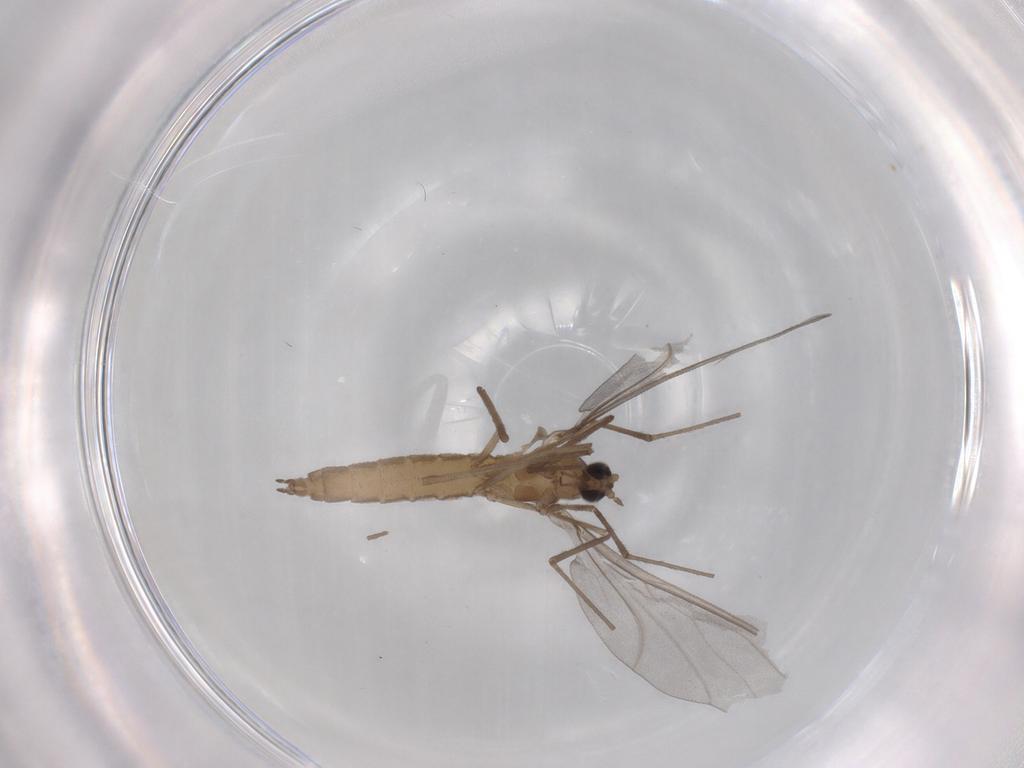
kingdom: Animalia
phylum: Arthropoda
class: Insecta
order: Diptera
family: Cecidomyiidae
